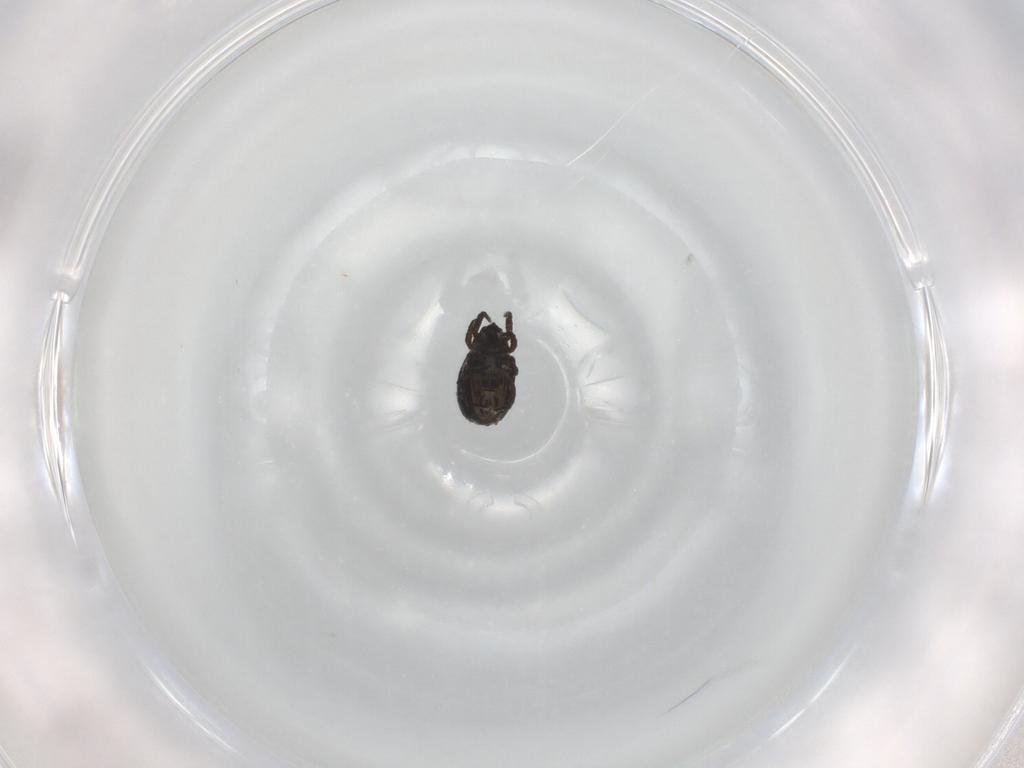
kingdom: Animalia
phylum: Arthropoda
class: Arachnida
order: Sarcoptiformes
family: Crotoniidae
